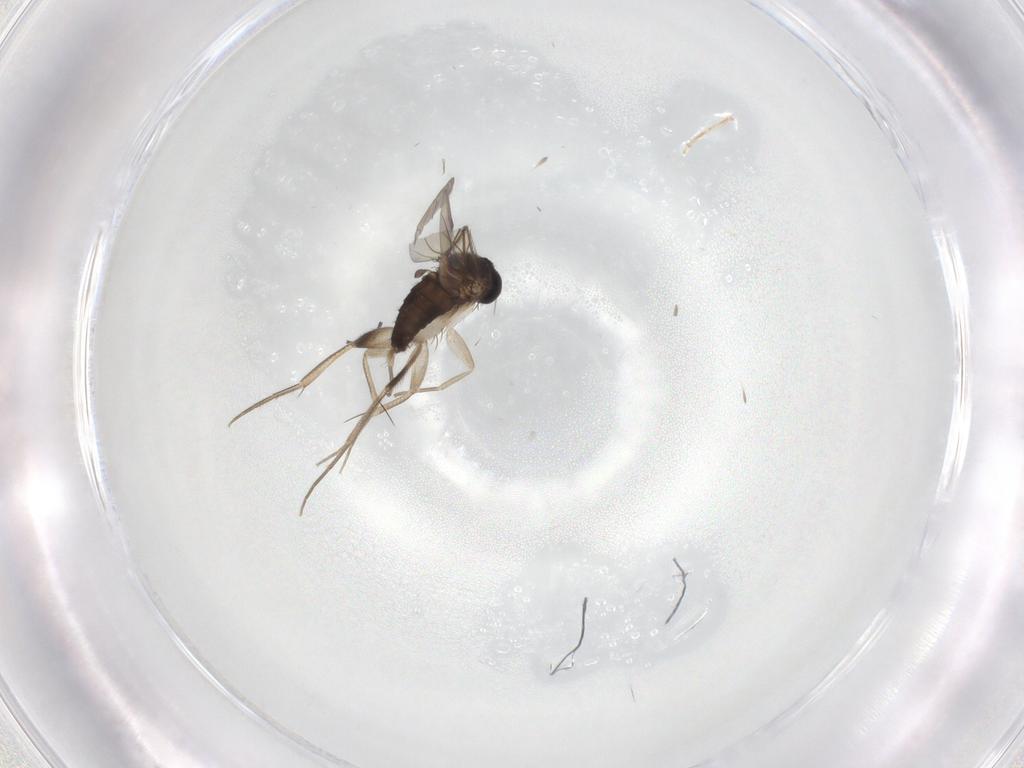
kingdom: Animalia
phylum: Arthropoda
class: Insecta
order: Diptera
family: Phoridae
